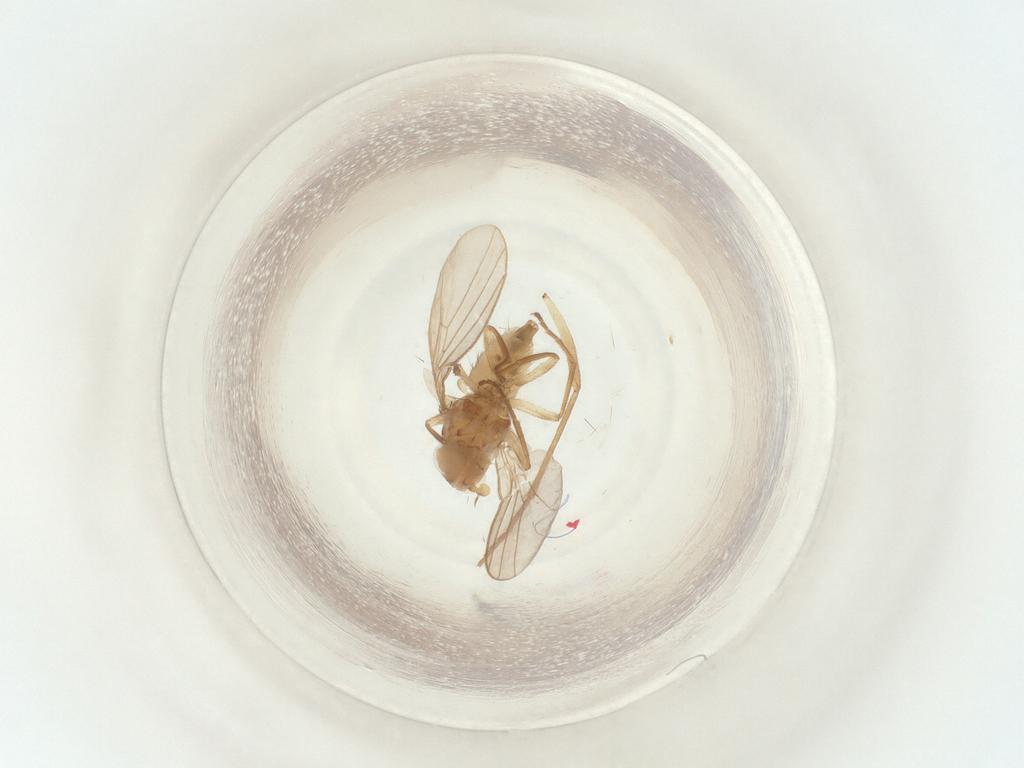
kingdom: Animalia
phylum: Arthropoda
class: Insecta
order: Diptera
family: Agromyzidae
